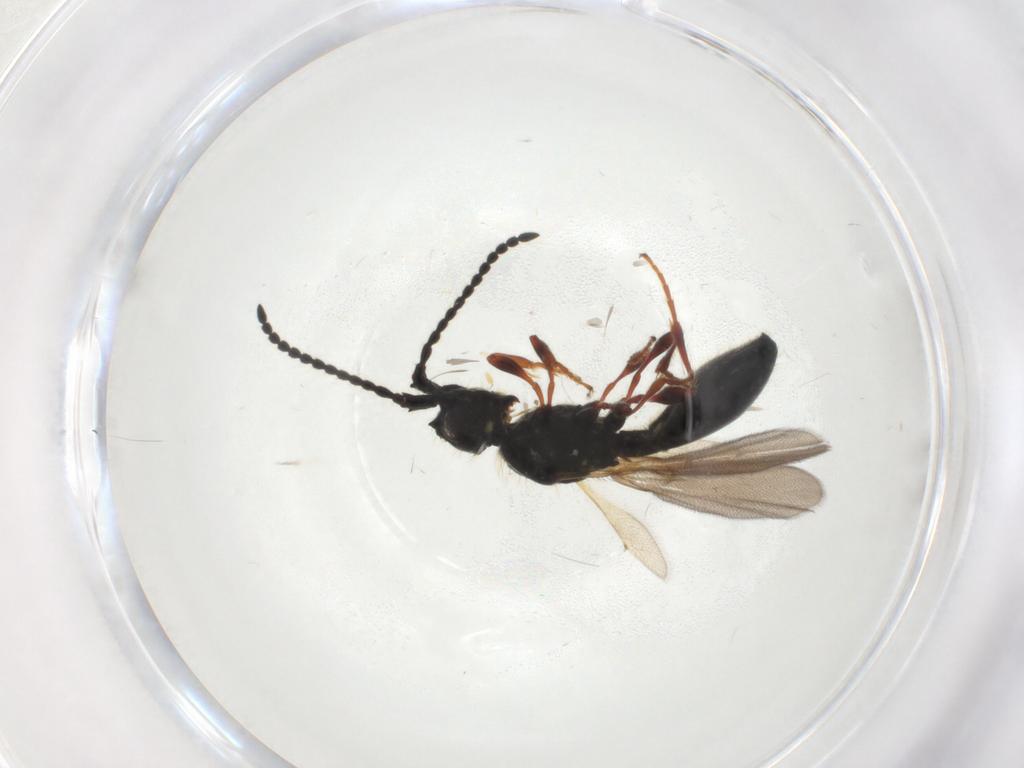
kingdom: Animalia
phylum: Arthropoda
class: Insecta
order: Hymenoptera
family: Diapriidae
